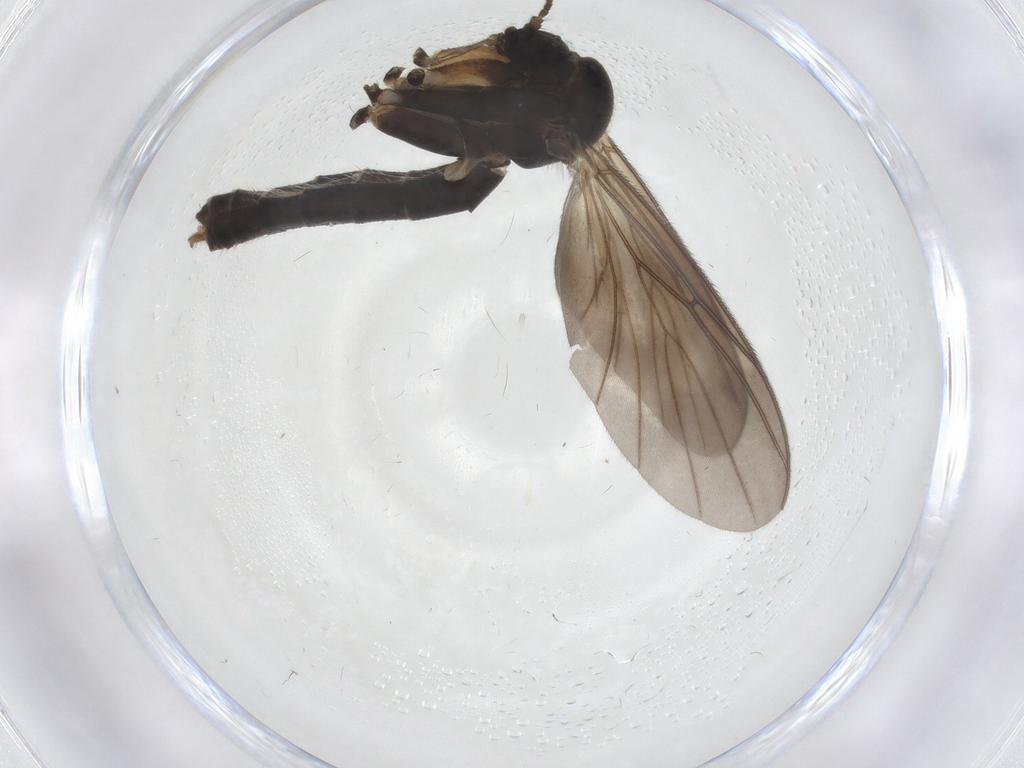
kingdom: Animalia
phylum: Arthropoda
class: Insecta
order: Diptera
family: Mycetophilidae
